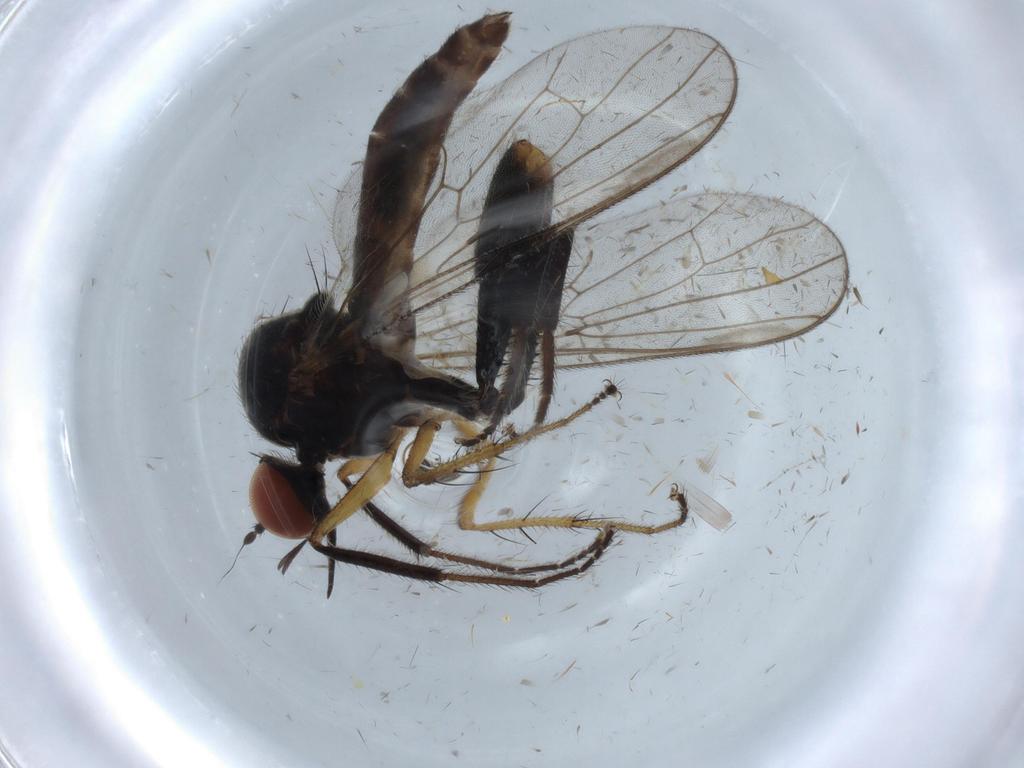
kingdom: Animalia
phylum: Arthropoda
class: Insecta
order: Diptera
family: Hybotidae
